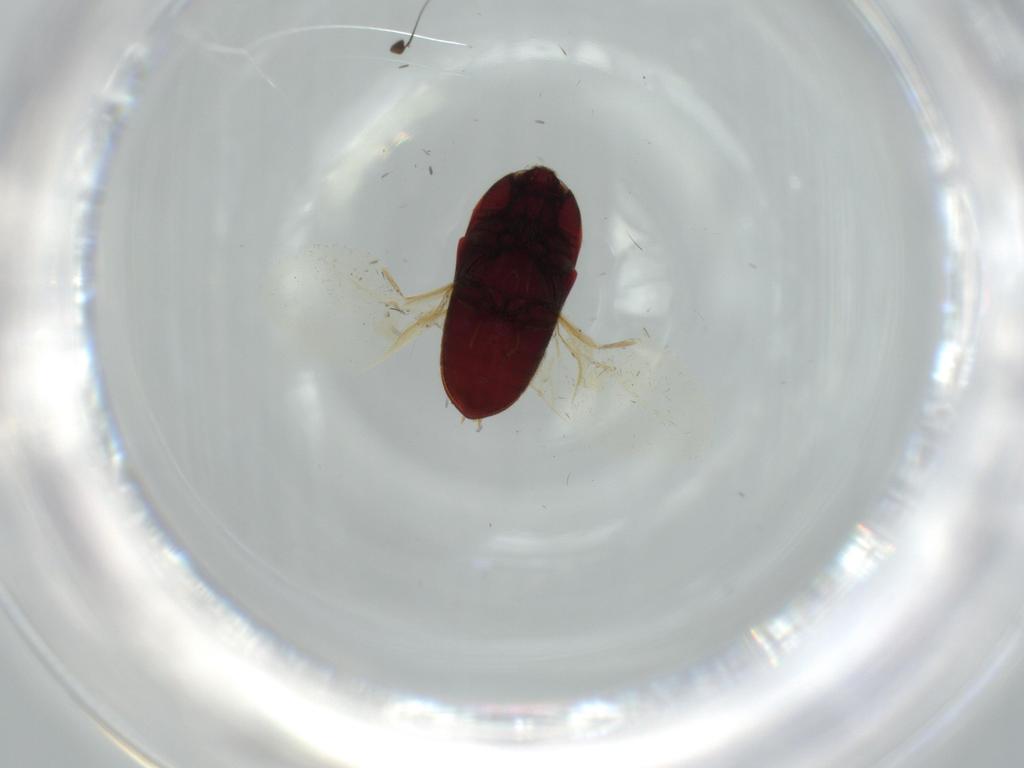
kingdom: Animalia
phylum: Arthropoda
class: Insecta
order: Coleoptera
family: Throscidae
